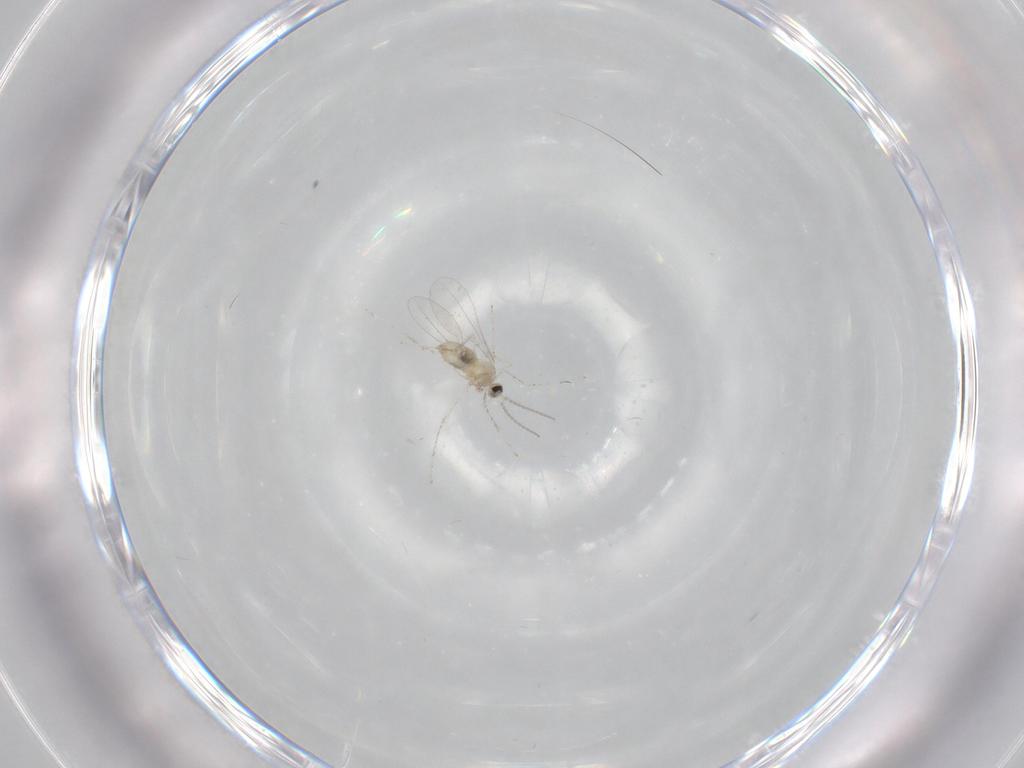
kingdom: Animalia
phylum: Arthropoda
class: Insecta
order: Diptera
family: Cecidomyiidae
